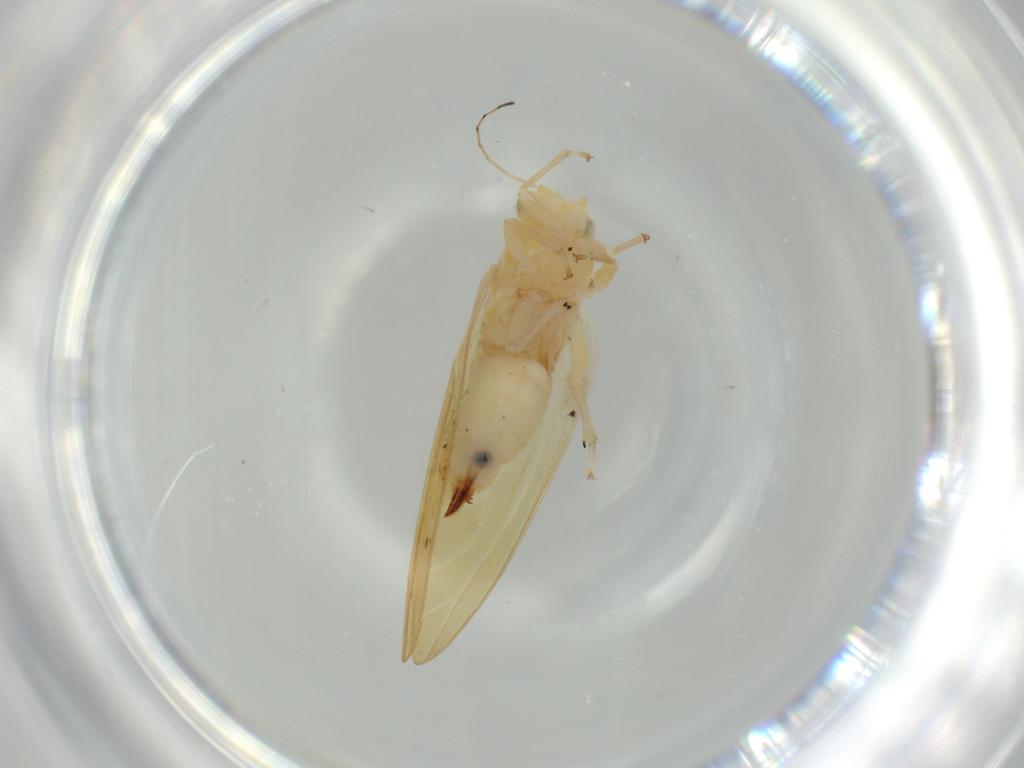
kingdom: Animalia
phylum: Arthropoda
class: Insecta
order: Hemiptera
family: Triozidae
